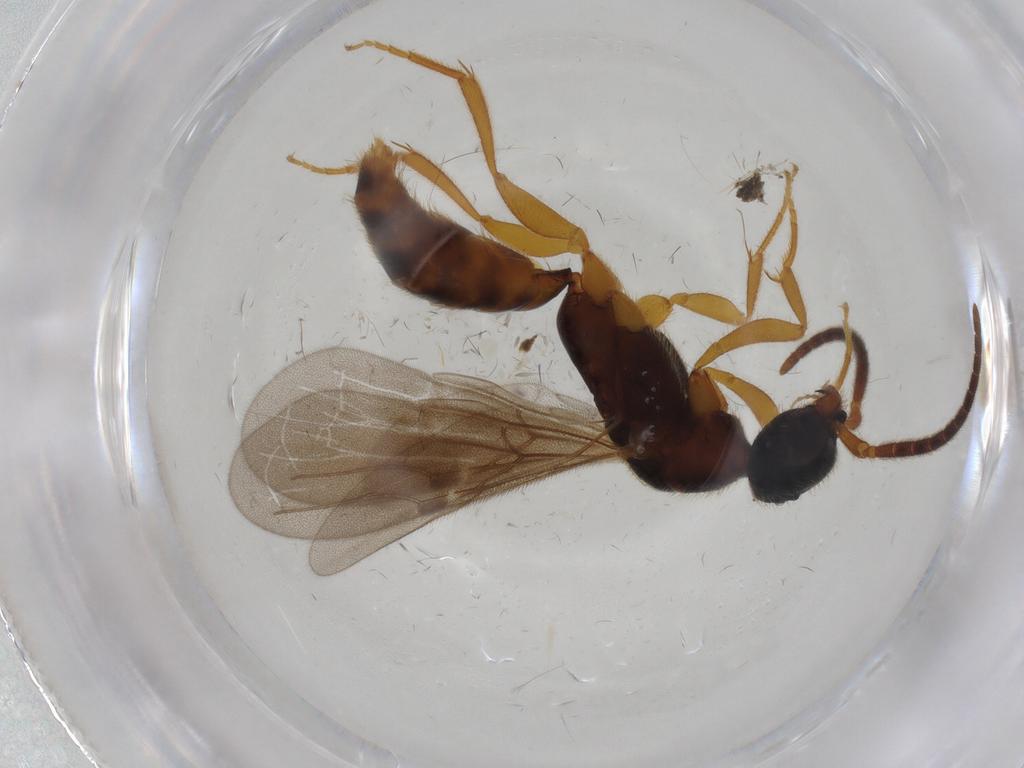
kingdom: Animalia
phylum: Arthropoda
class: Insecta
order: Hymenoptera
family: Bethylidae
